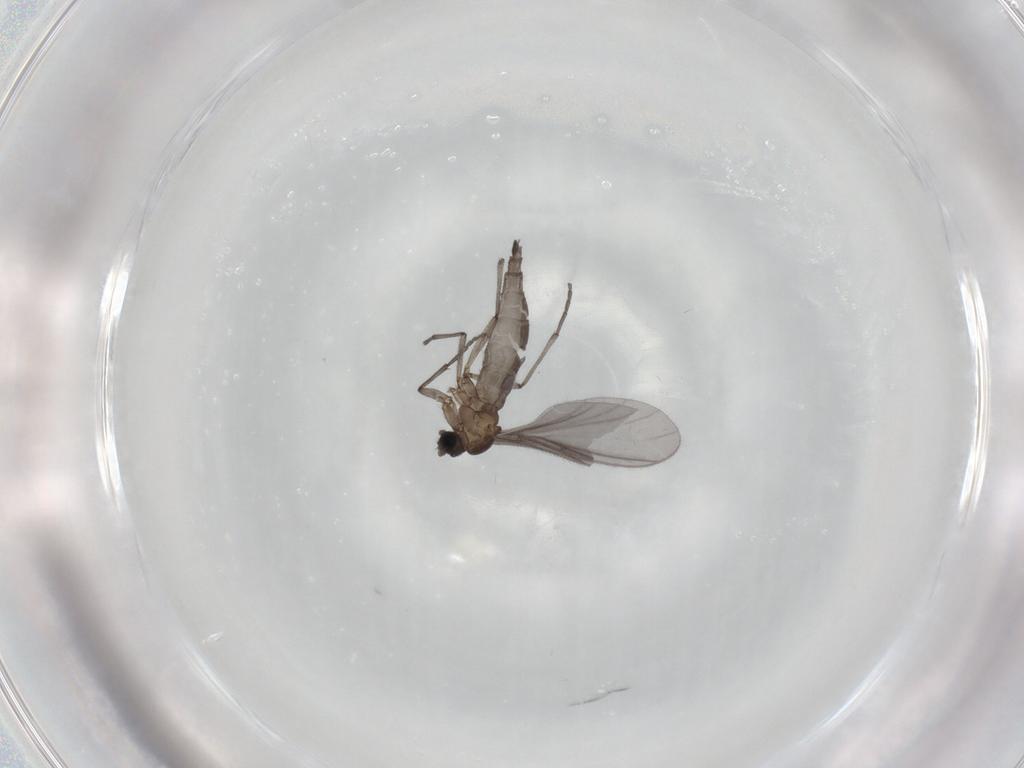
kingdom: Animalia
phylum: Arthropoda
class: Insecta
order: Diptera
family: Sciaridae
